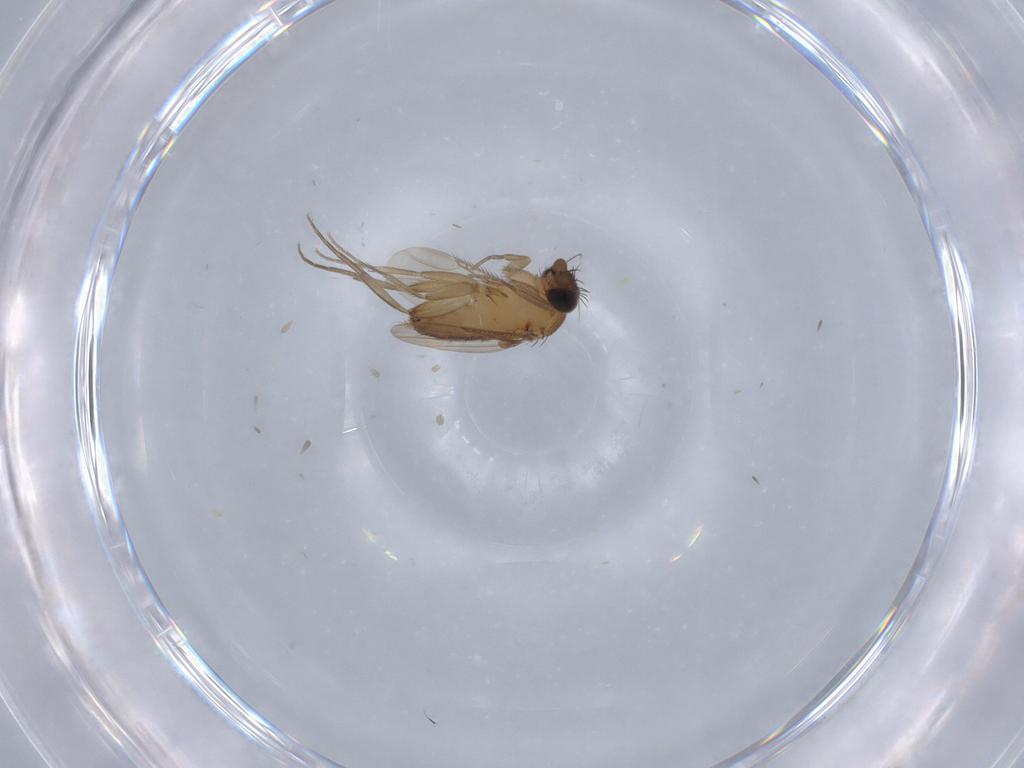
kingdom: Animalia
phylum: Arthropoda
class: Insecta
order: Diptera
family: Phoridae
